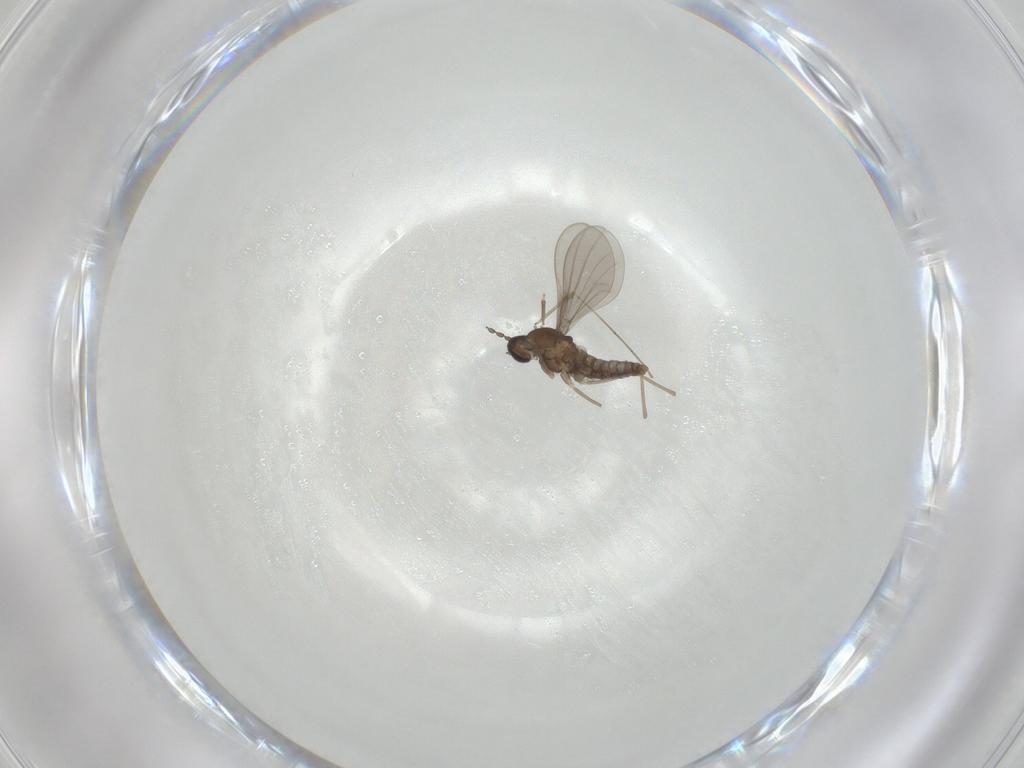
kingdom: Animalia
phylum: Arthropoda
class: Insecta
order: Diptera
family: Cecidomyiidae
